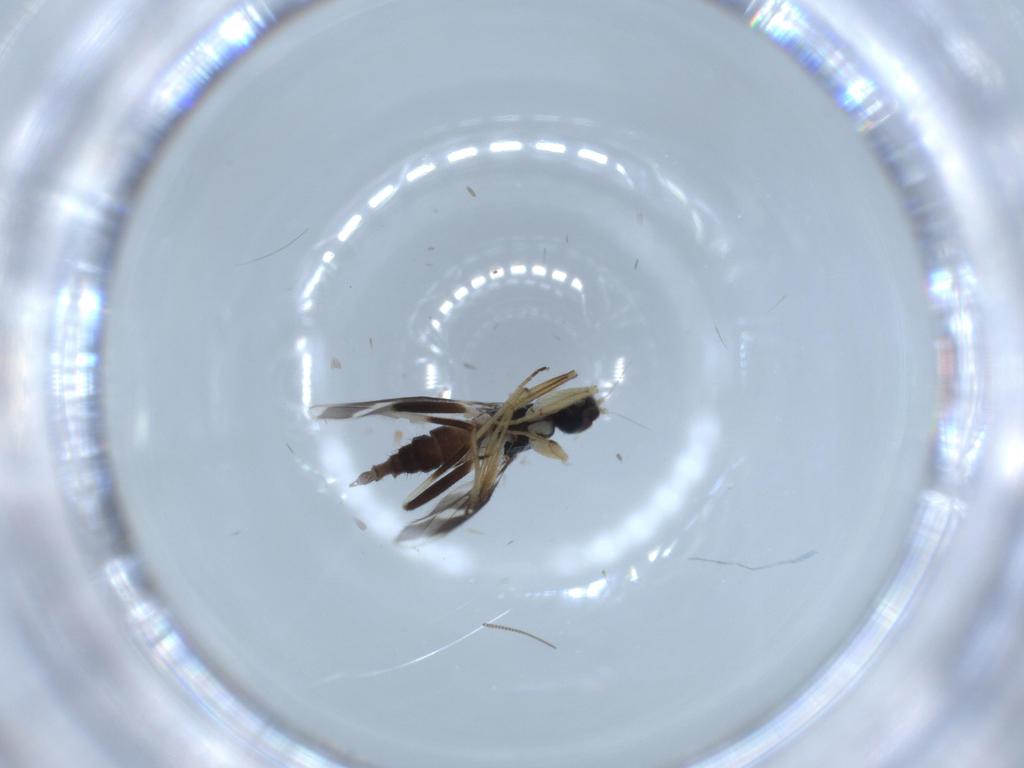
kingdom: Animalia
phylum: Arthropoda
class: Insecta
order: Diptera
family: Hybotidae
